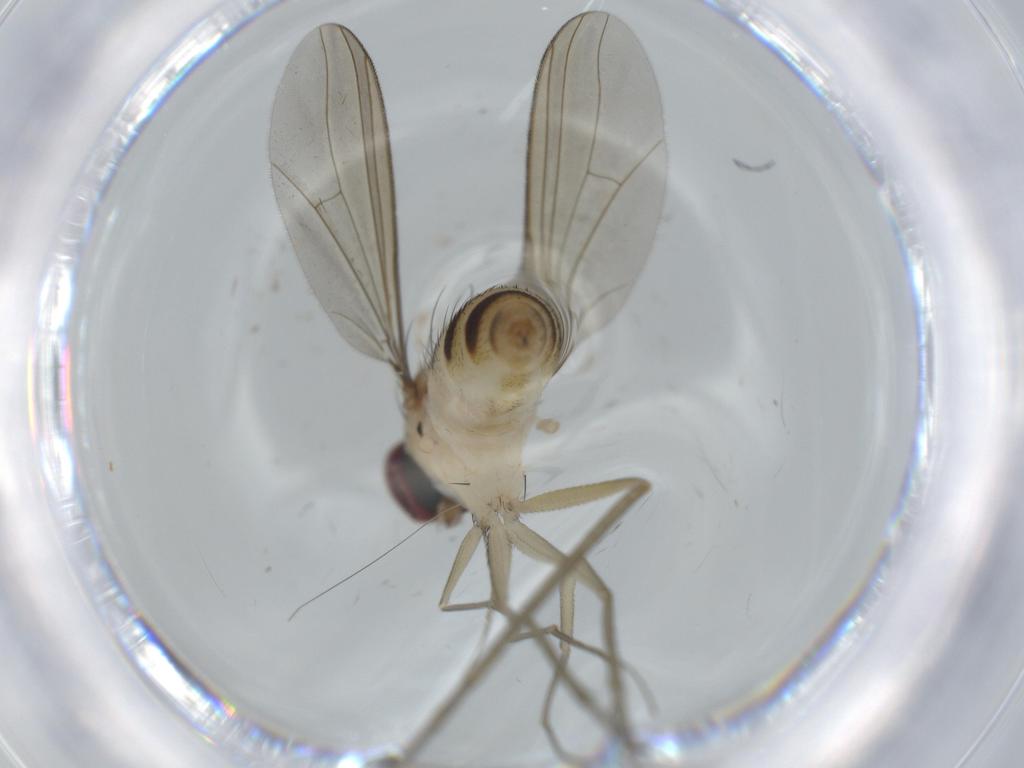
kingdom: Animalia
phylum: Arthropoda
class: Insecta
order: Diptera
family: Dolichopodidae
